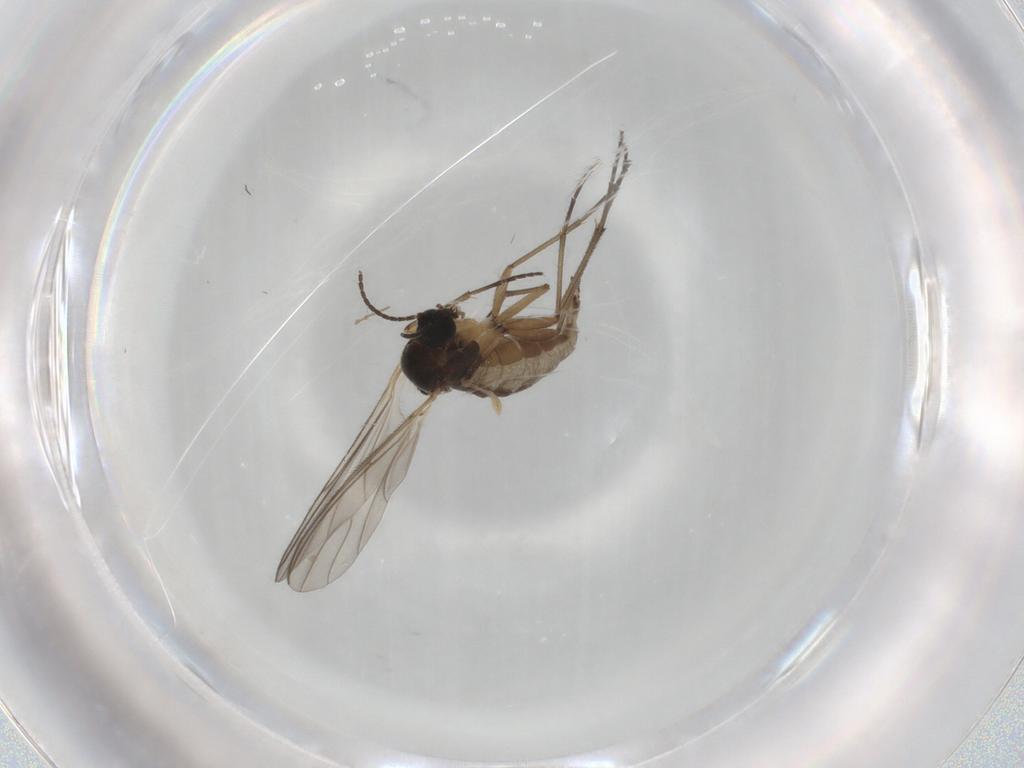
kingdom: Animalia
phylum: Arthropoda
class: Insecta
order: Diptera
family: Sciaridae
